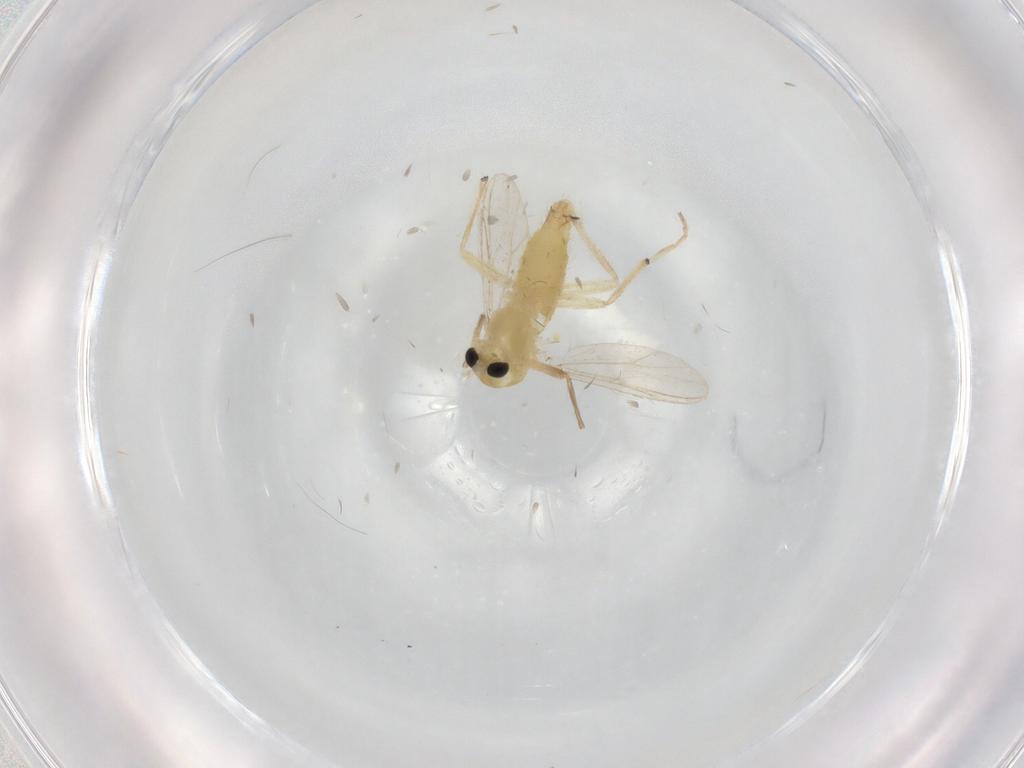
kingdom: Animalia
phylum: Arthropoda
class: Insecta
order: Diptera
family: Chironomidae
